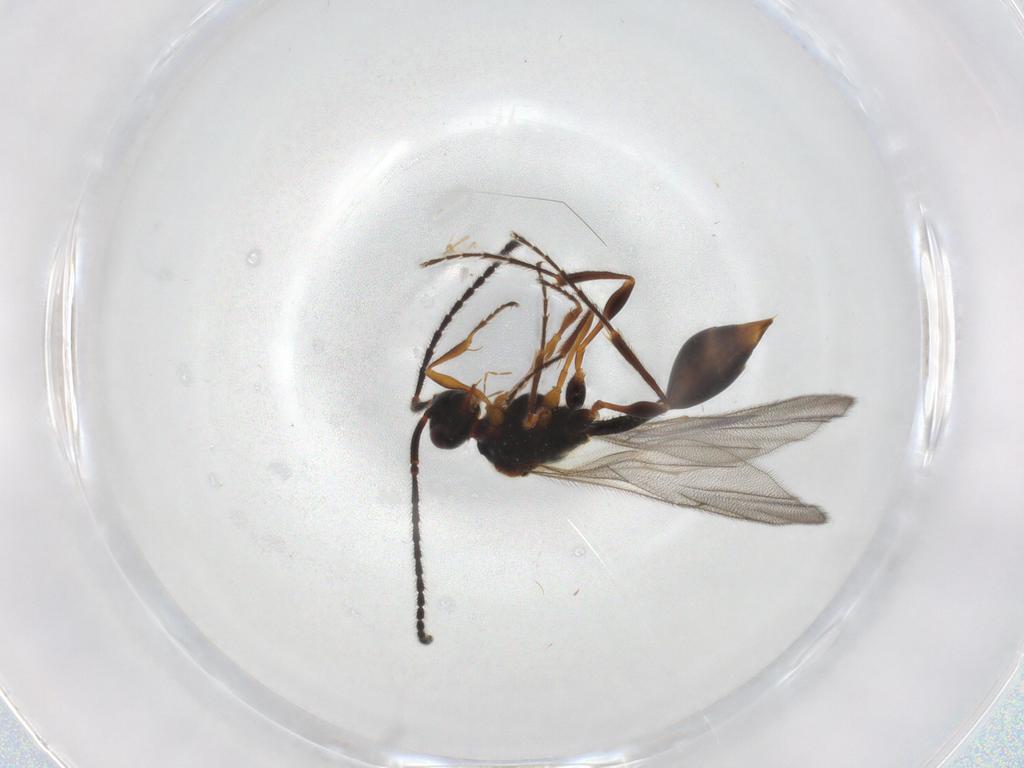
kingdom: Animalia
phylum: Arthropoda
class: Insecta
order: Hymenoptera
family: Diapriidae
